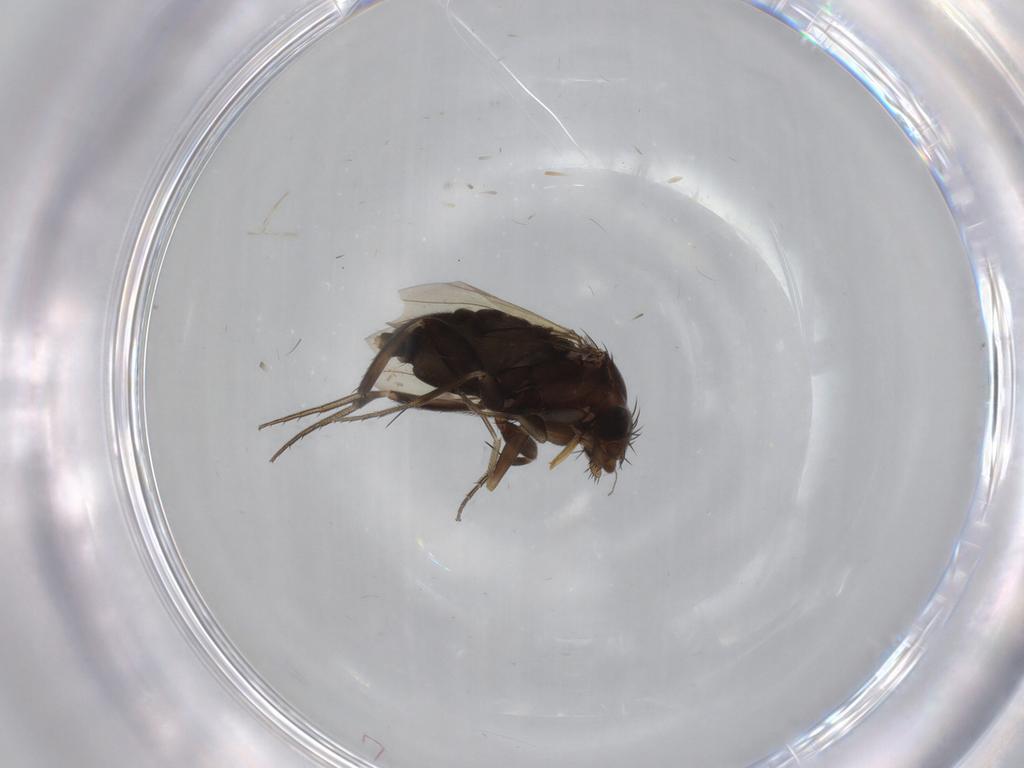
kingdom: Animalia
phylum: Arthropoda
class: Insecta
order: Diptera
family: Phoridae
